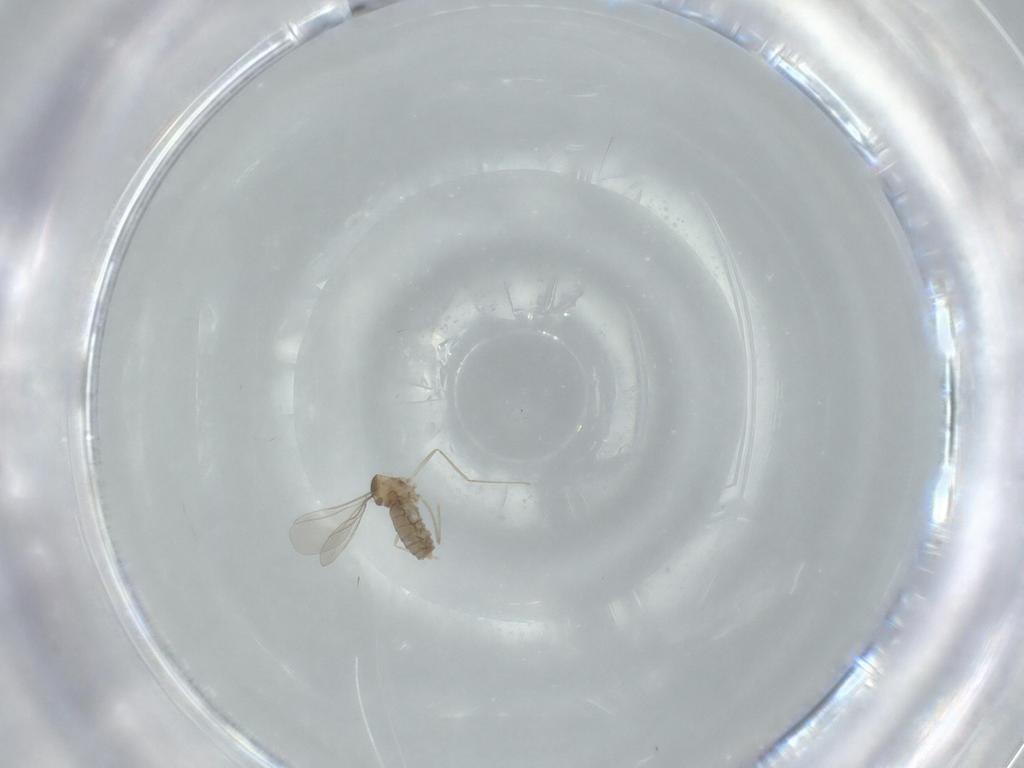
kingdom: Animalia
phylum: Arthropoda
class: Insecta
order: Diptera
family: Cecidomyiidae
